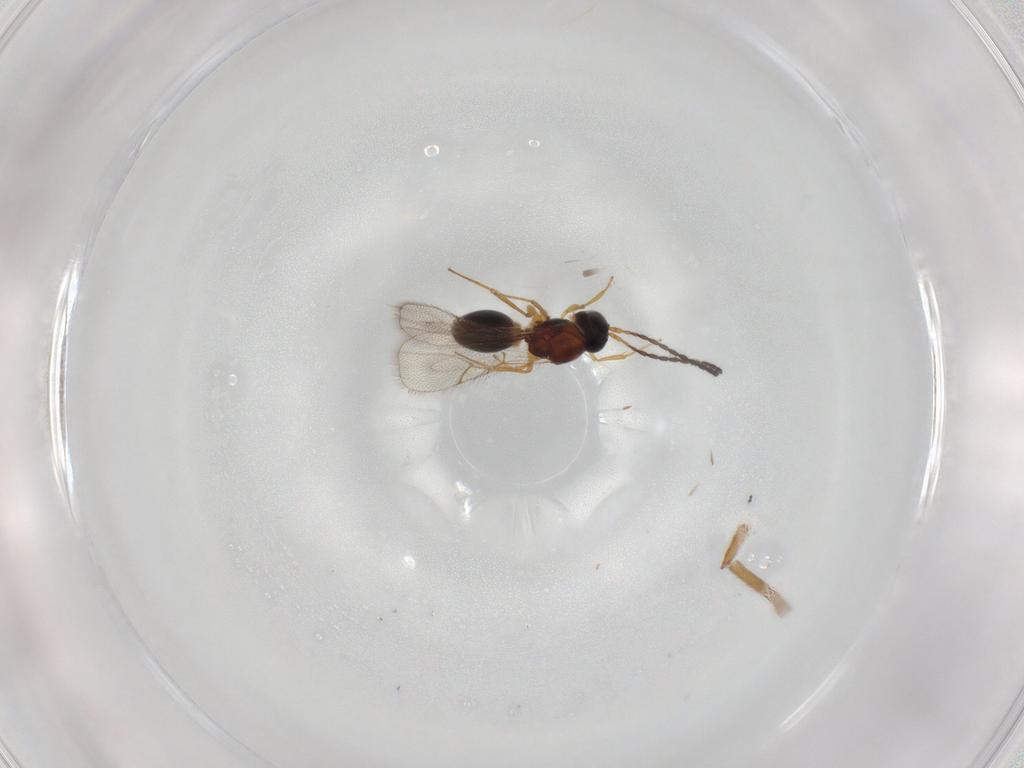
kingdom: Animalia
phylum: Arthropoda
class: Insecta
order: Hymenoptera
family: Figitidae
